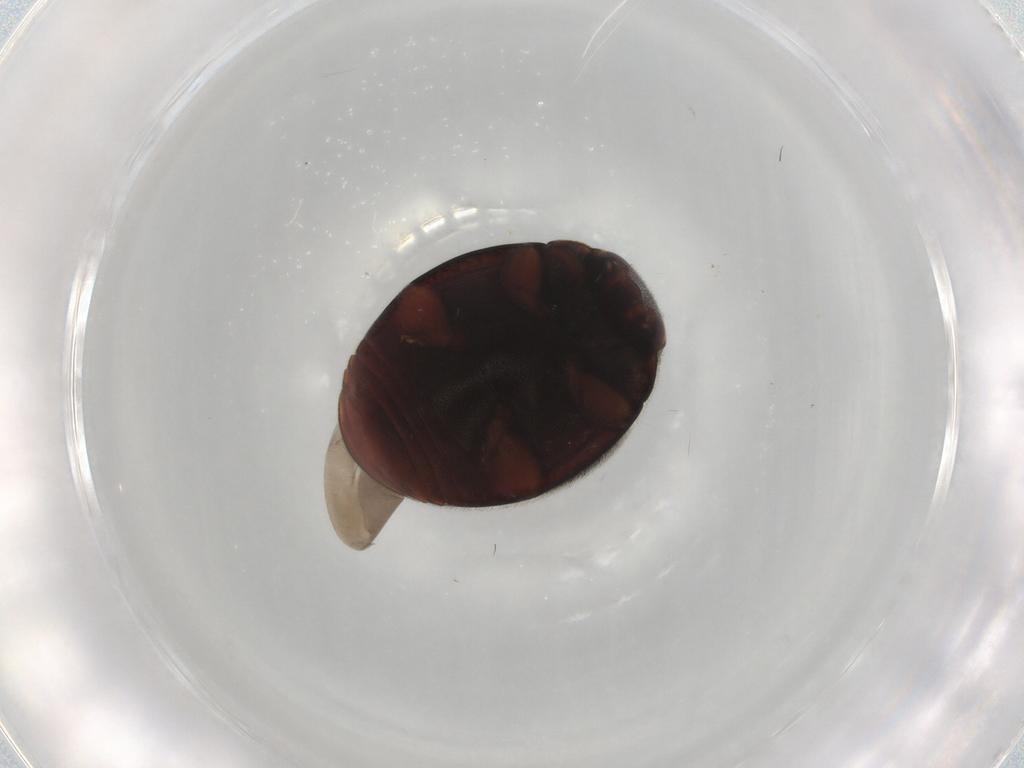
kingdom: Animalia
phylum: Arthropoda
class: Insecta
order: Coleoptera
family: Coccinellidae
